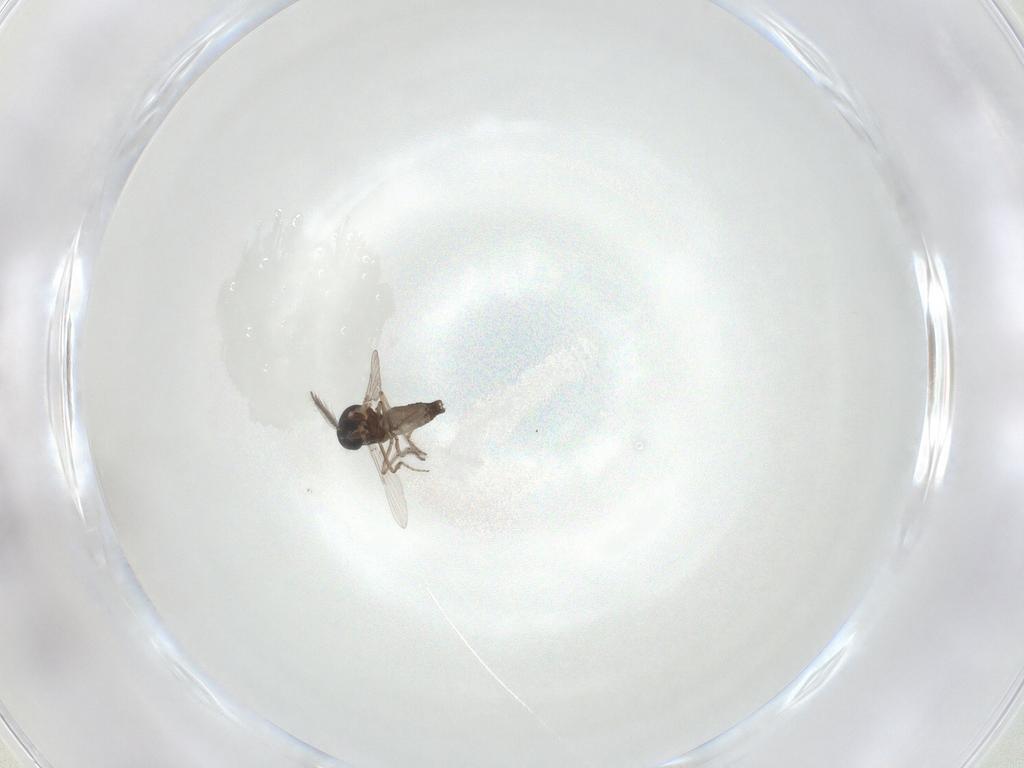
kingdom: Animalia
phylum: Arthropoda
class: Insecta
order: Diptera
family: Ceratopogonidae
